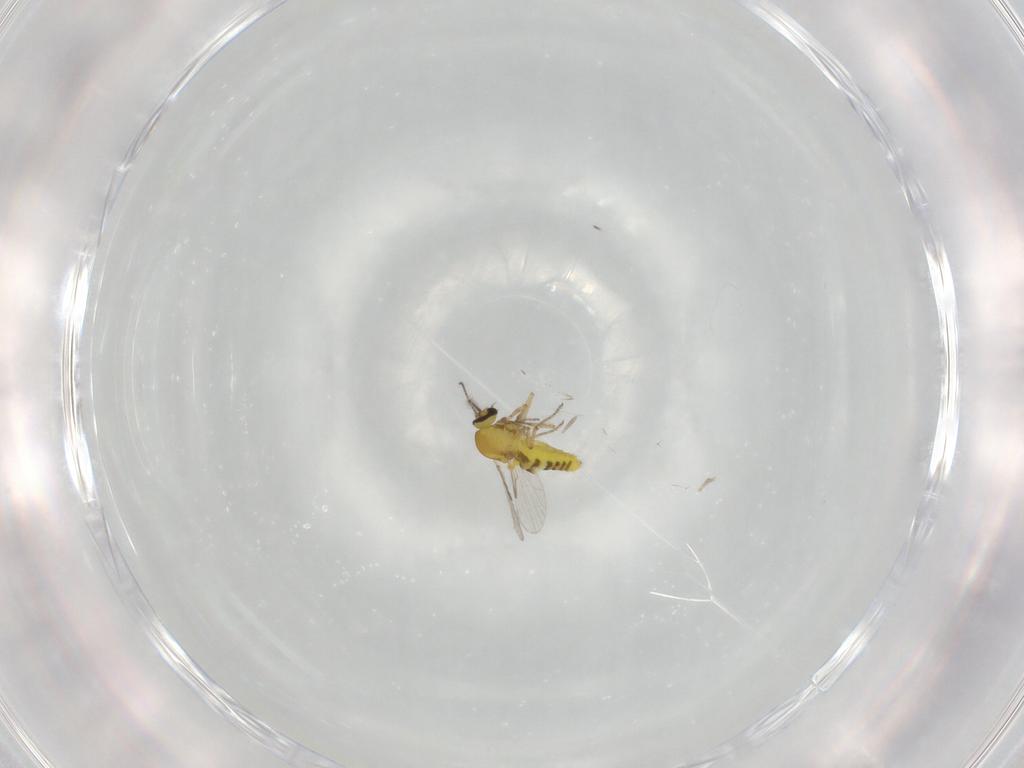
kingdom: Animalia
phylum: Arthropoda
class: Insecta
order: Diptera
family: Ceratopogonidae
